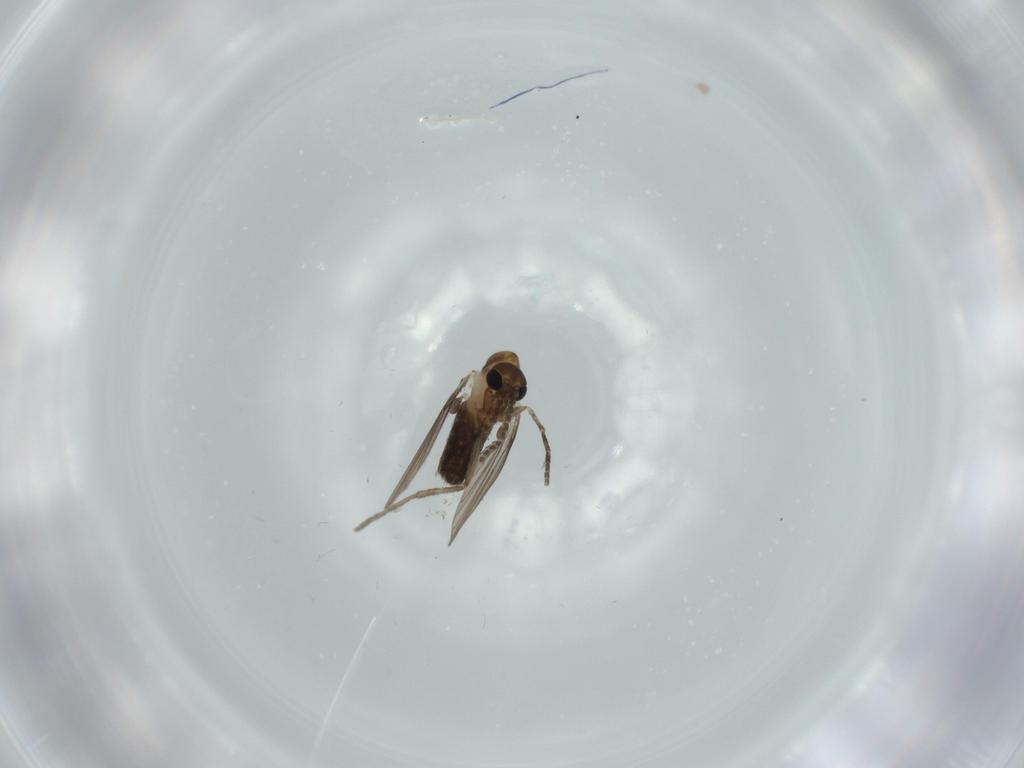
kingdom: Animalia
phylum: Arthropoda
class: Insecta
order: Diptera
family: Psychodidae
